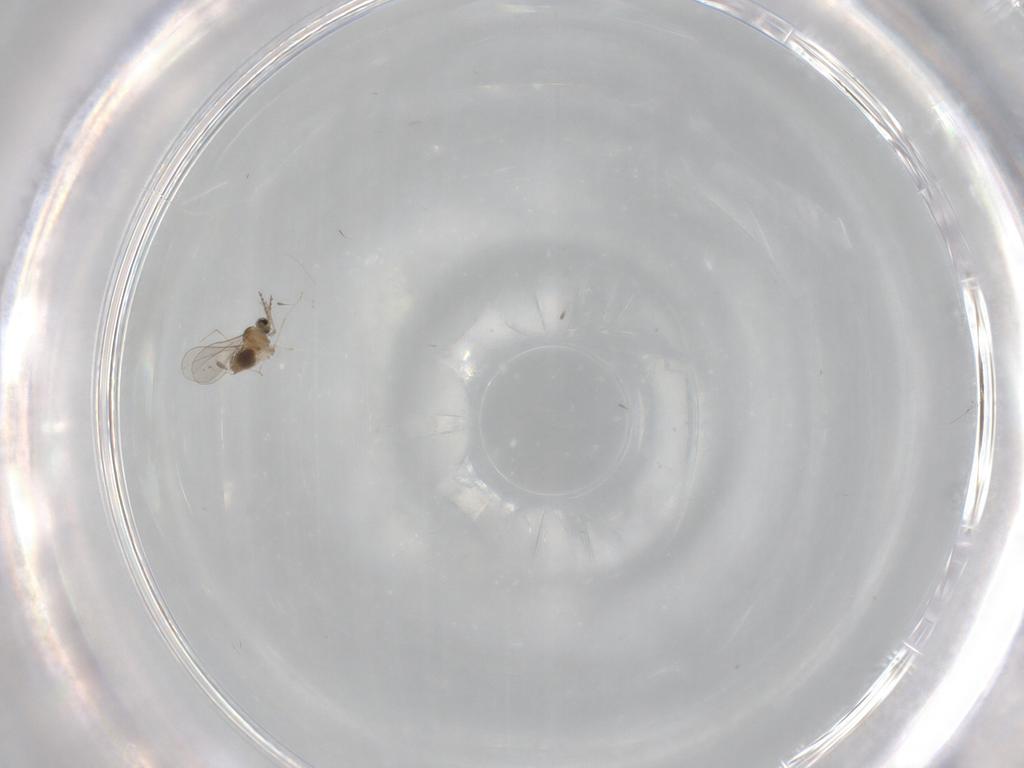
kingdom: Animalia
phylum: Arthropoda
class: Insecta
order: Diptera
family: Cecidomyiidae
